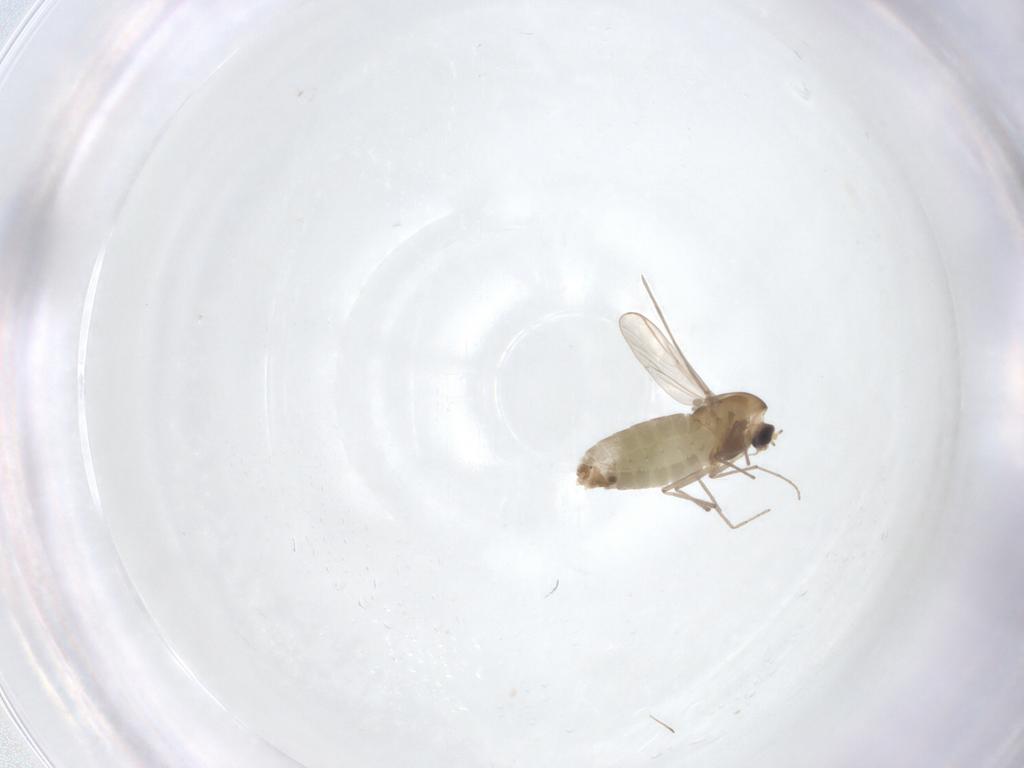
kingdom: Animalia
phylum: Arthropoda
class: Insecta
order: Diptera
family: Chironomidae
